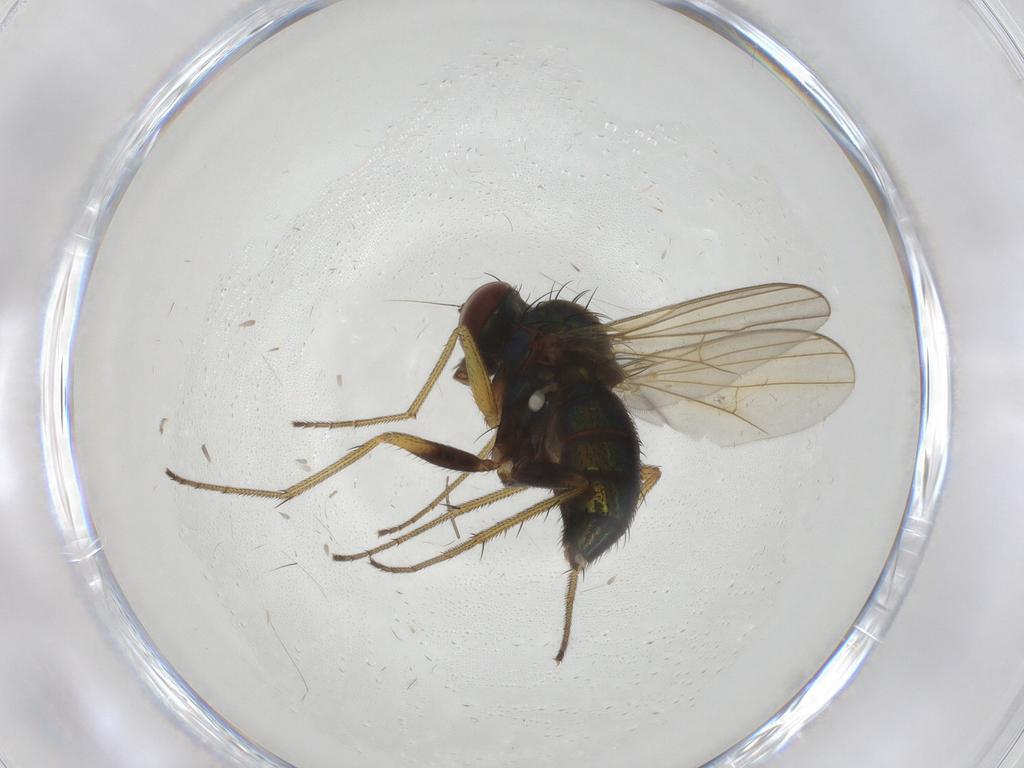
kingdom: Animalia
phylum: Arthropoda
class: Insecta
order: Diptera
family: Dolichopodidae
